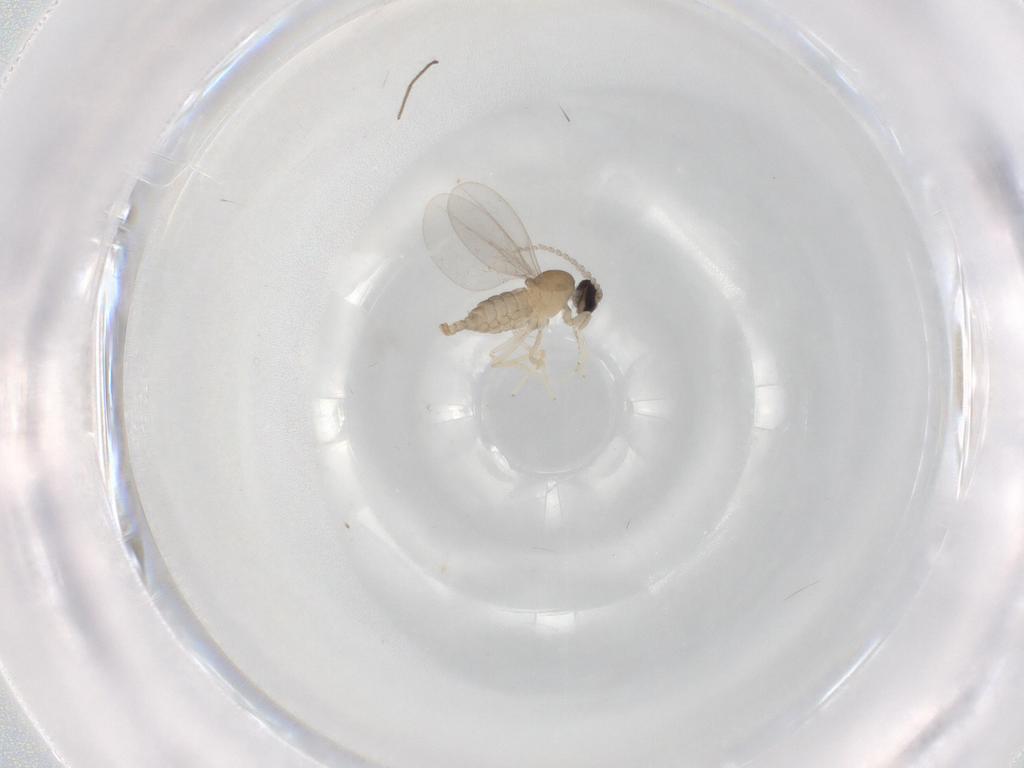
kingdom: Animalia
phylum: Arthropoda
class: Insecta
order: Diptera
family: Cecidomyiidae
